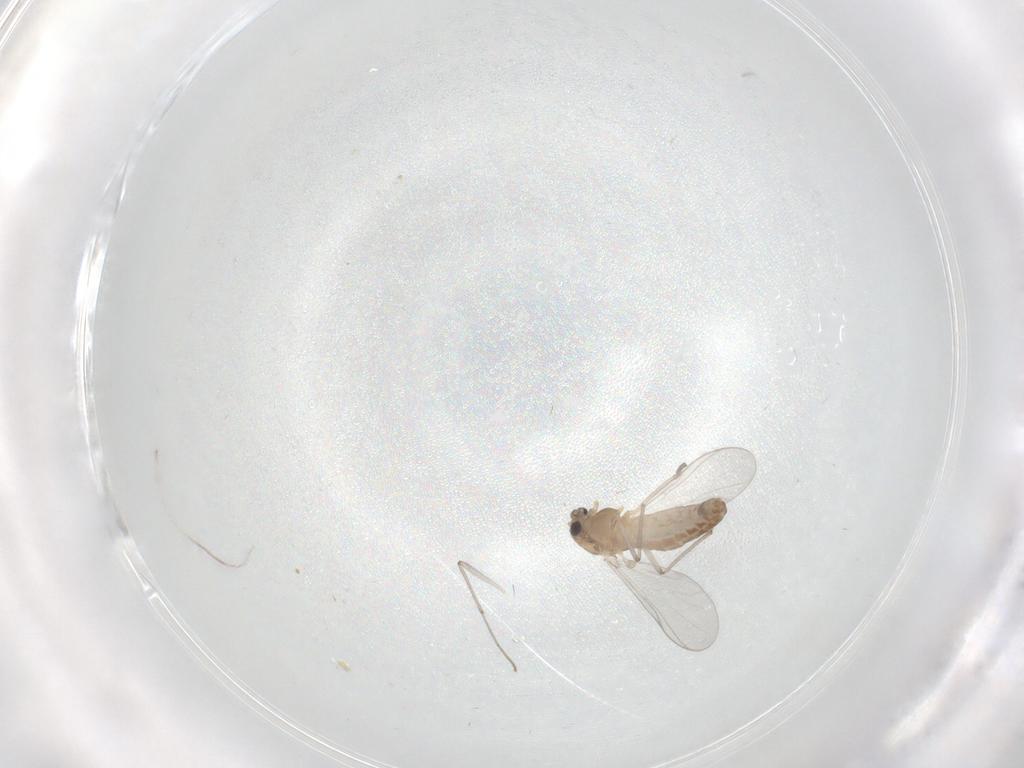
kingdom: Animalia
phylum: Arthropoda
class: Insecta
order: Diptera
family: Chironomidae
